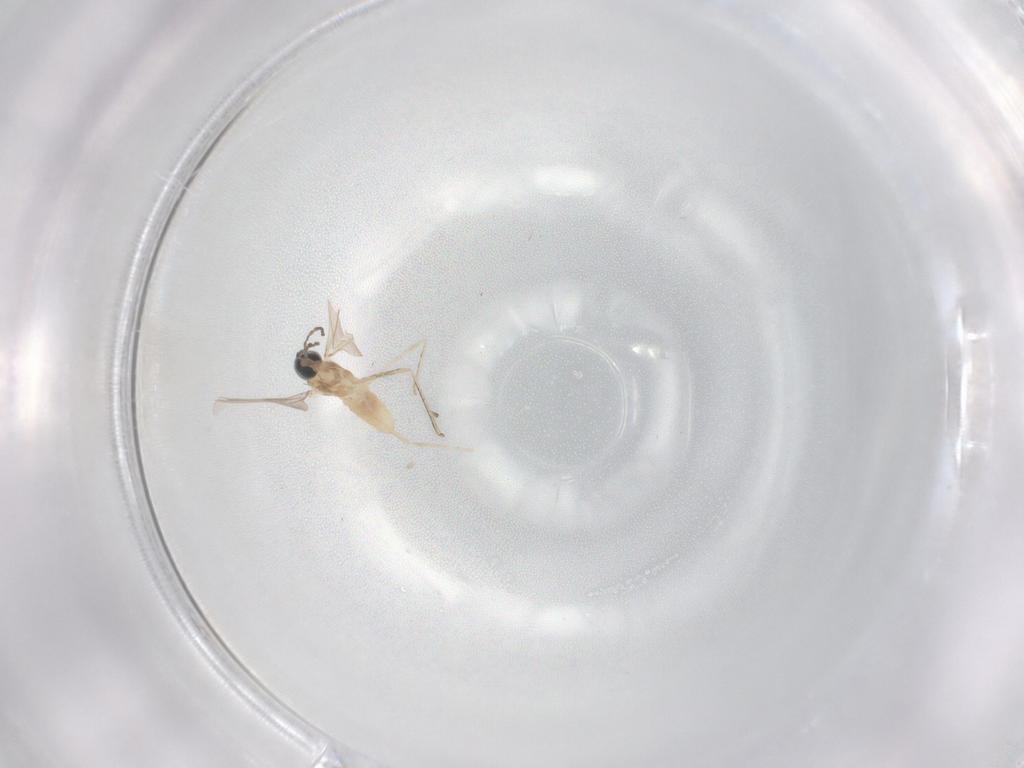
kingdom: Animalia
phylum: Arthropoda
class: Insecta
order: Diptera
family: Cecidomyiidae
